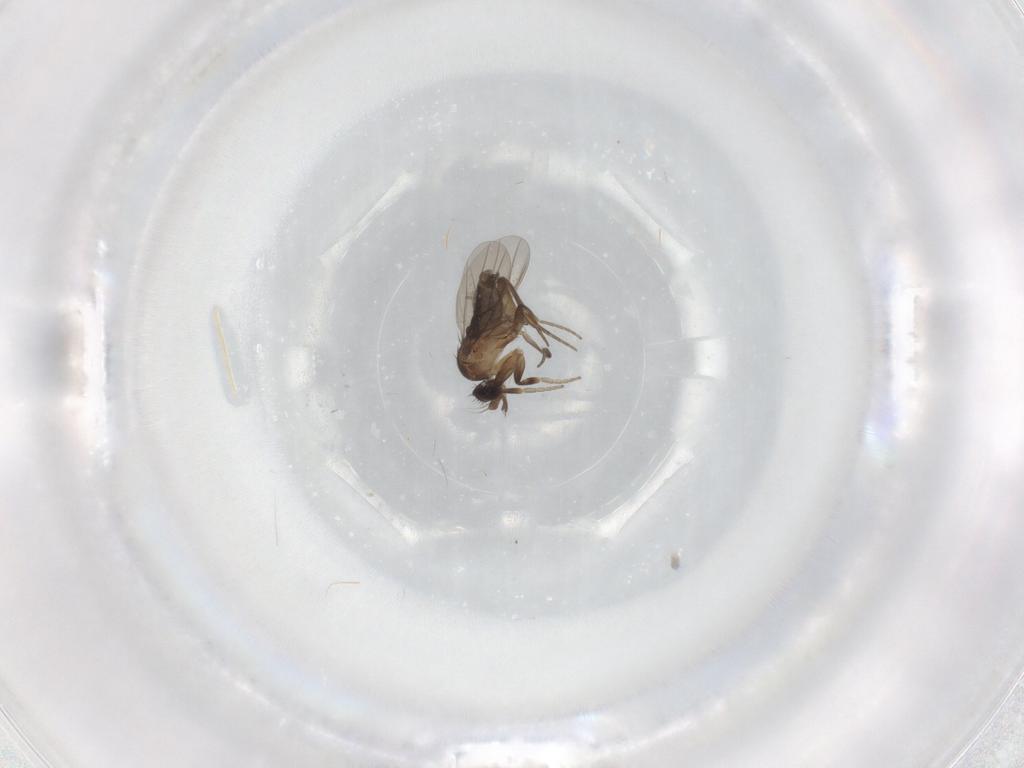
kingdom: Animalia
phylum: Arthropoda
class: Insecta
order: Diptera
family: Phoridae
